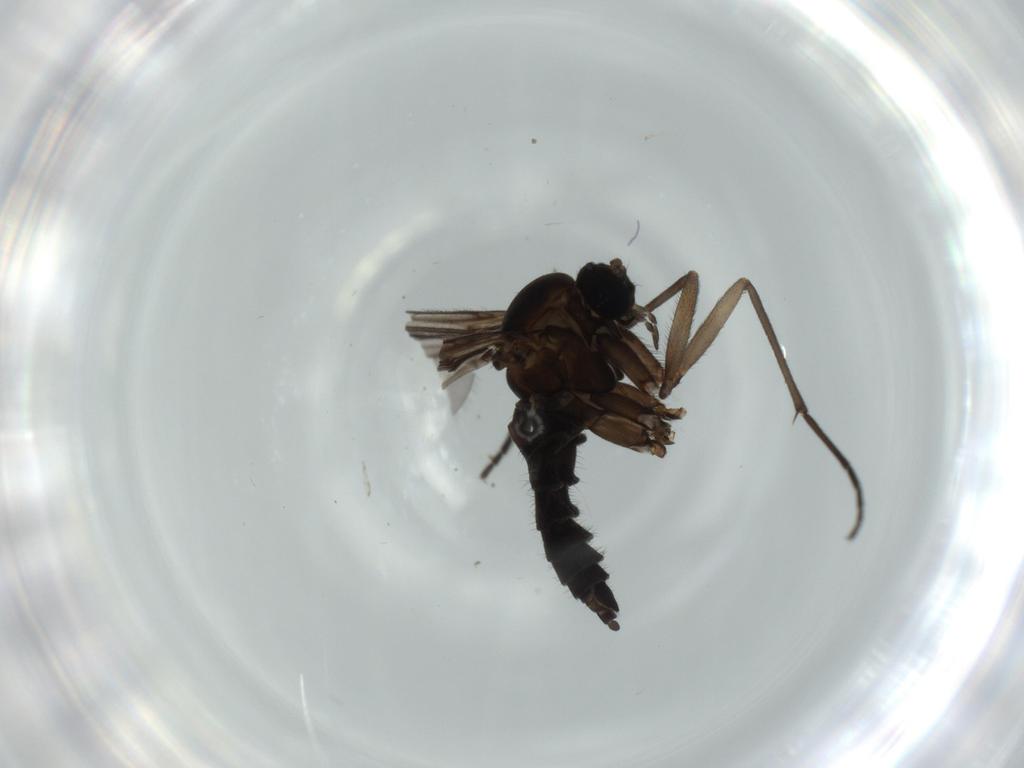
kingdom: Animalia
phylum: Arthropoda
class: Insecta
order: Diptera
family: Sciaridae
